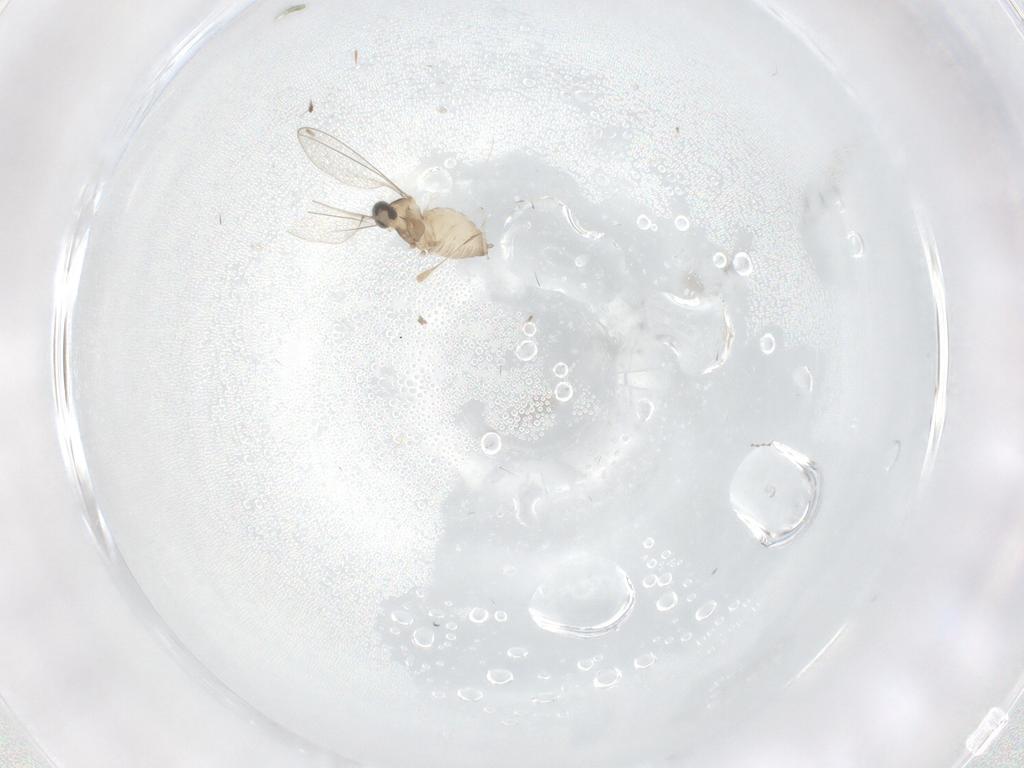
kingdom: Animalia
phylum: Arthropoda
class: Insecta
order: Diptera
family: Cecidomyiidae
